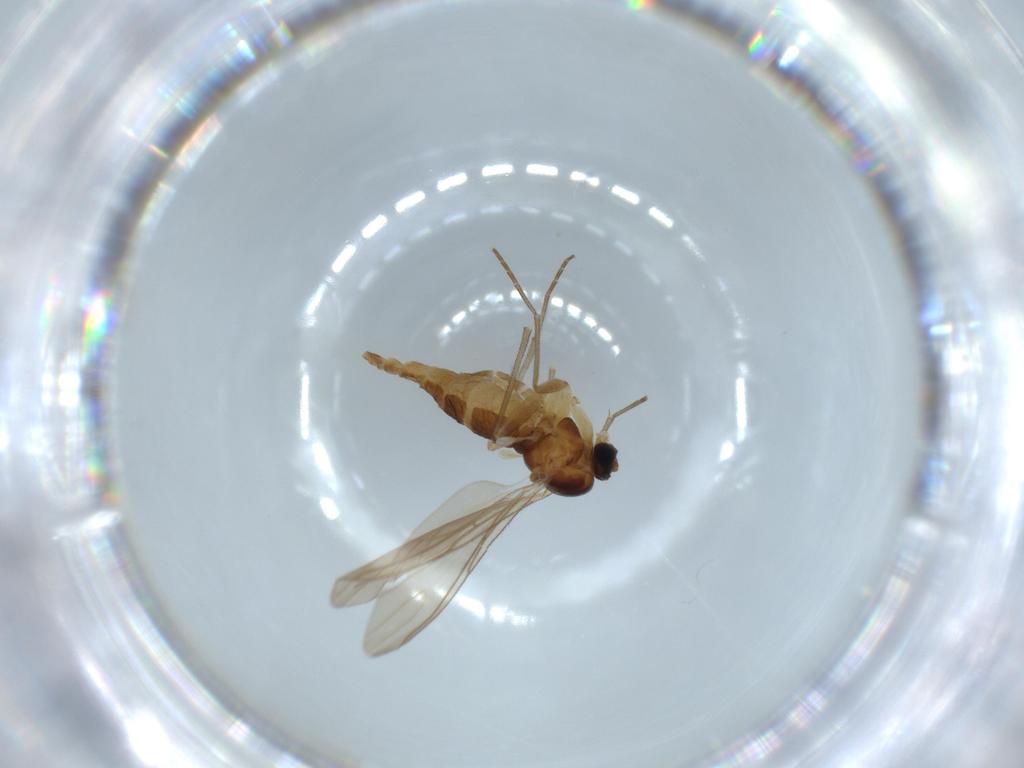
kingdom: Animalia
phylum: Arthropoda
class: Insecta
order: Diptera
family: Sciaridae
